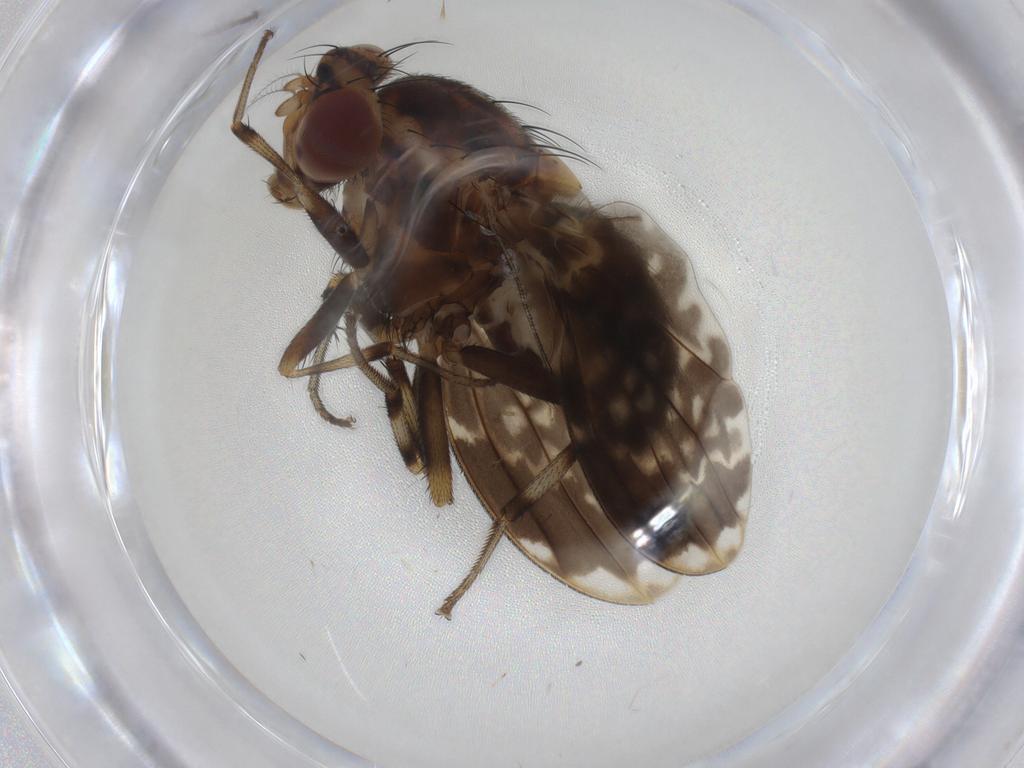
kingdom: Animalia
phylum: Arthropoda
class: Insecta
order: Diptera
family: Lauxaniidae
